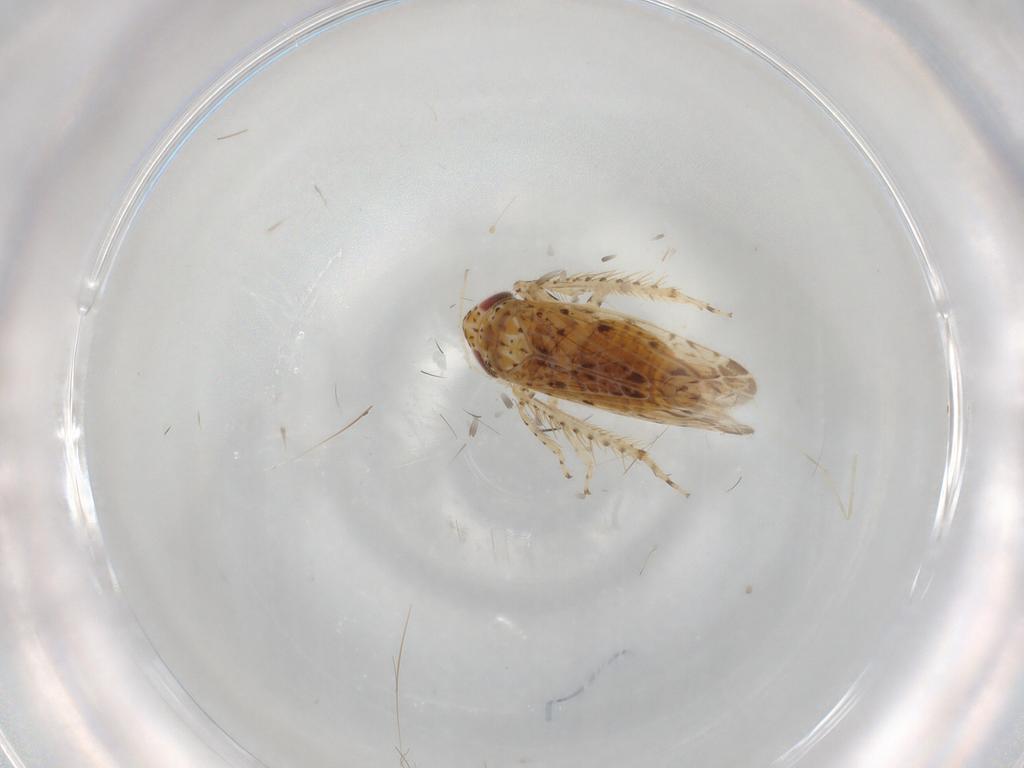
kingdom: Animalia
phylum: Arthropoda
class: Insecta
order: Hemiptera
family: Cicadellidae
